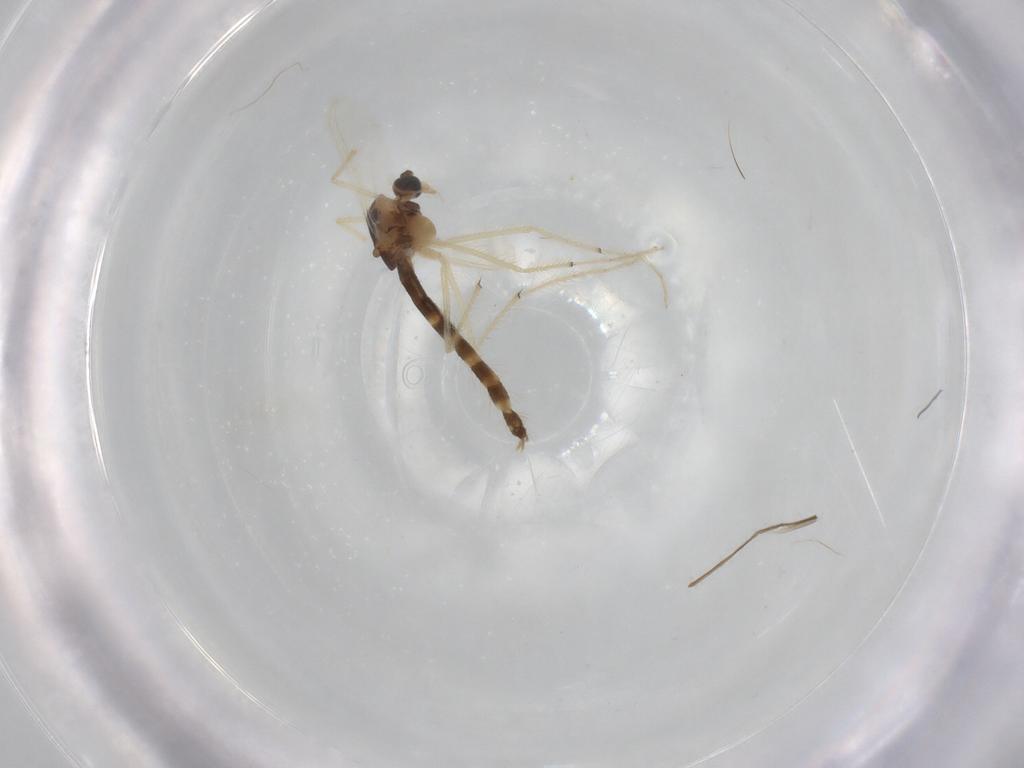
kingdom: Animalia
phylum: Arthropoda
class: Insecta
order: Diptera
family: Chironomidae
